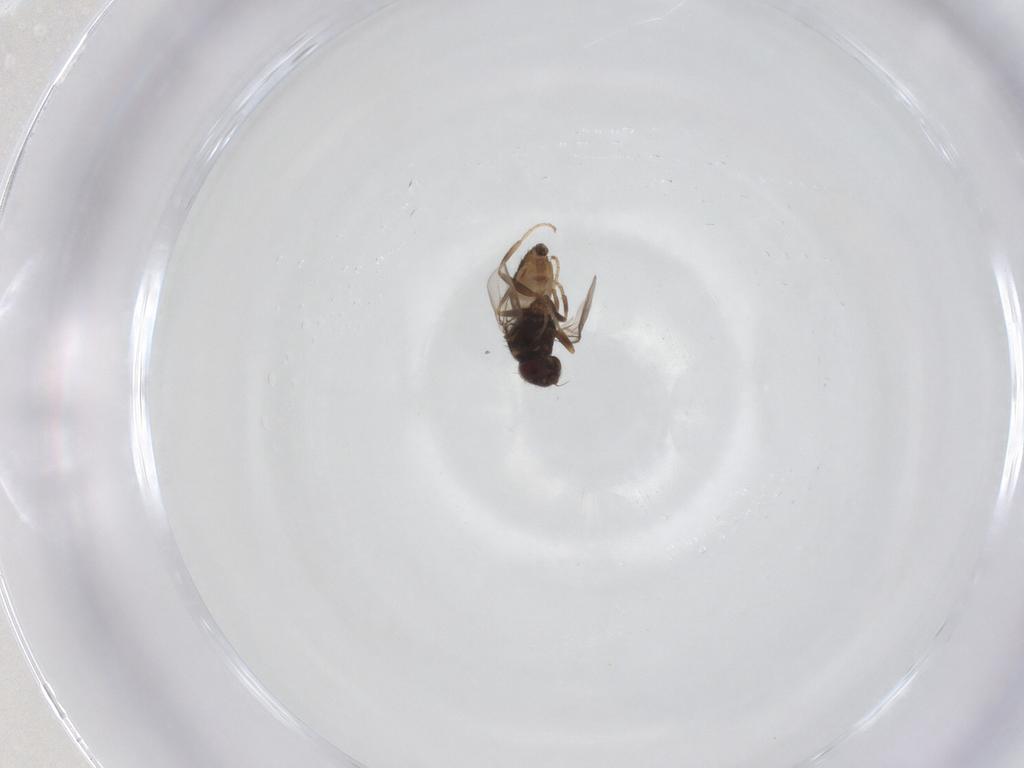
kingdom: Animalia
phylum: Arthropoda
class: Insecta
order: Diptera
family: Chloropidae
